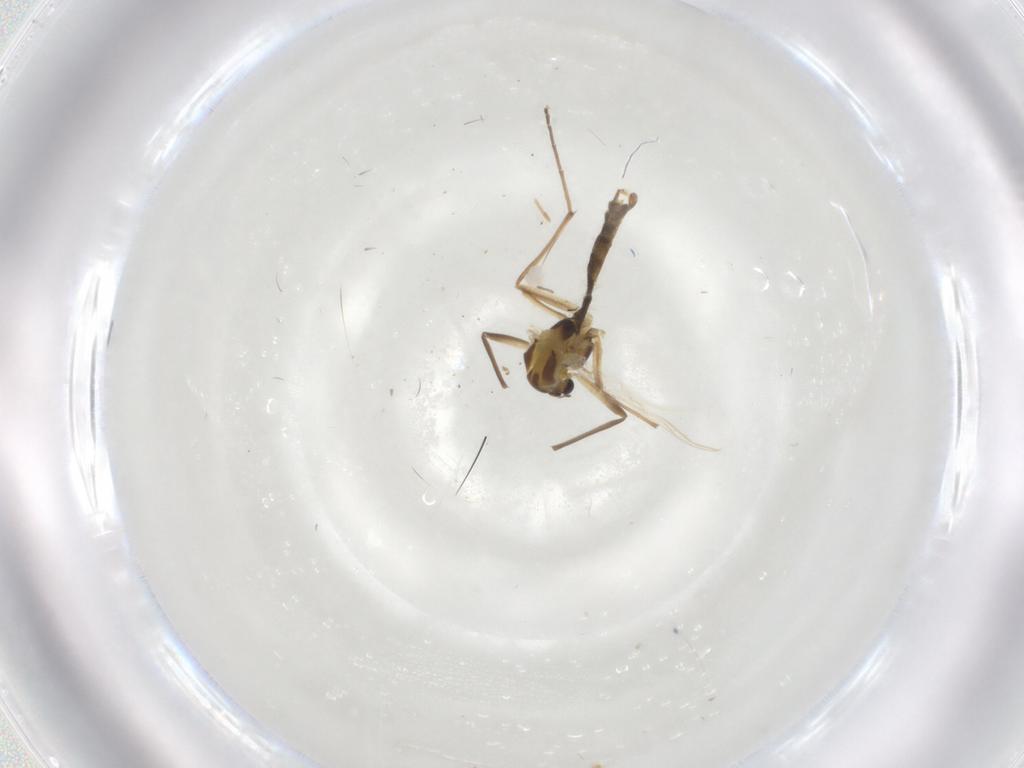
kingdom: Animalia
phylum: Arthropoda
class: Insecta
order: Diptera
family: Chironomidae
